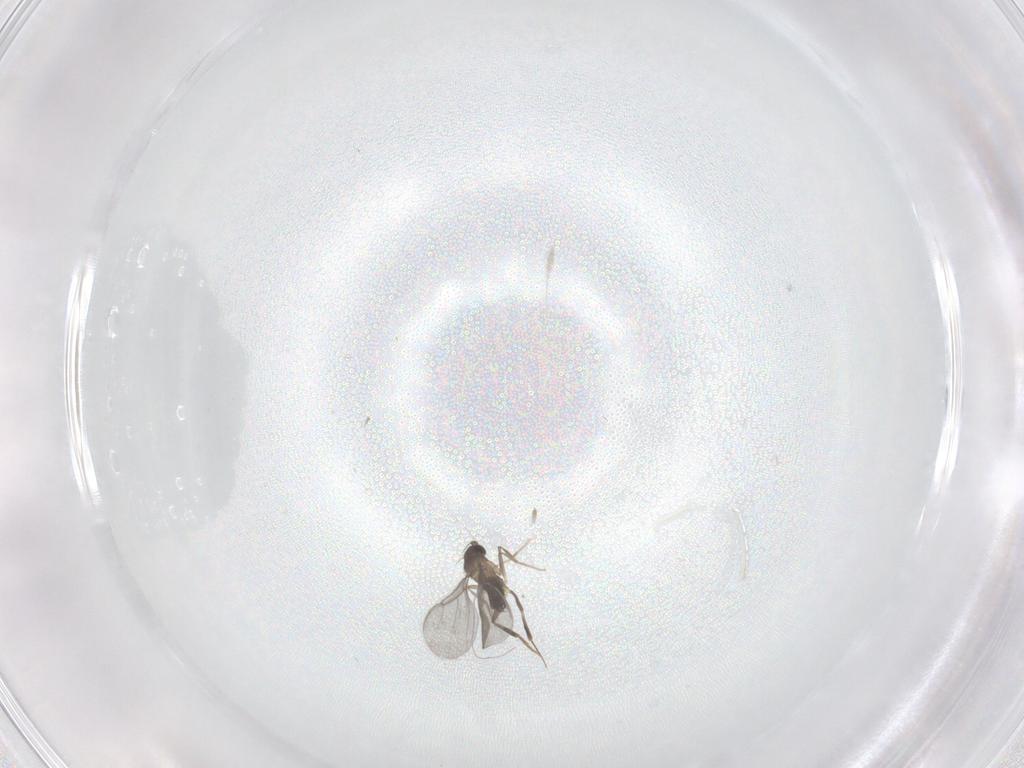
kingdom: Animalia
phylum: Arthropoda
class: Insecta
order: Diptera
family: Phoridae
